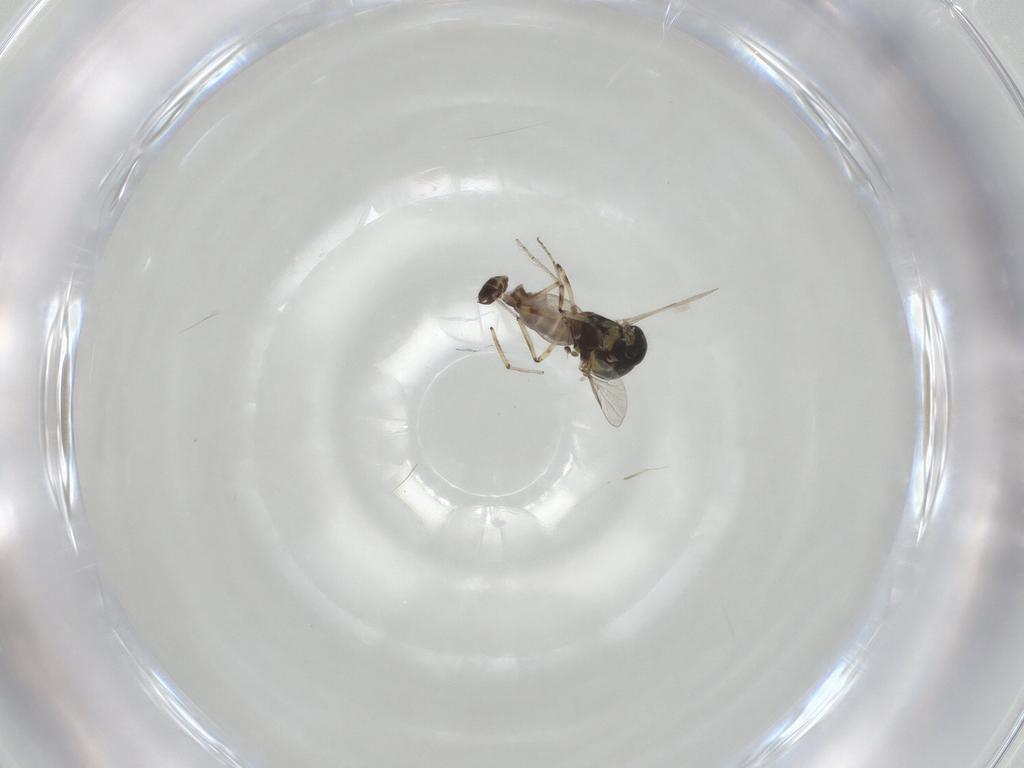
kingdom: Animalia
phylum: Arthropoda
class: Insecta
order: Diptera
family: Ceratopogonidae
